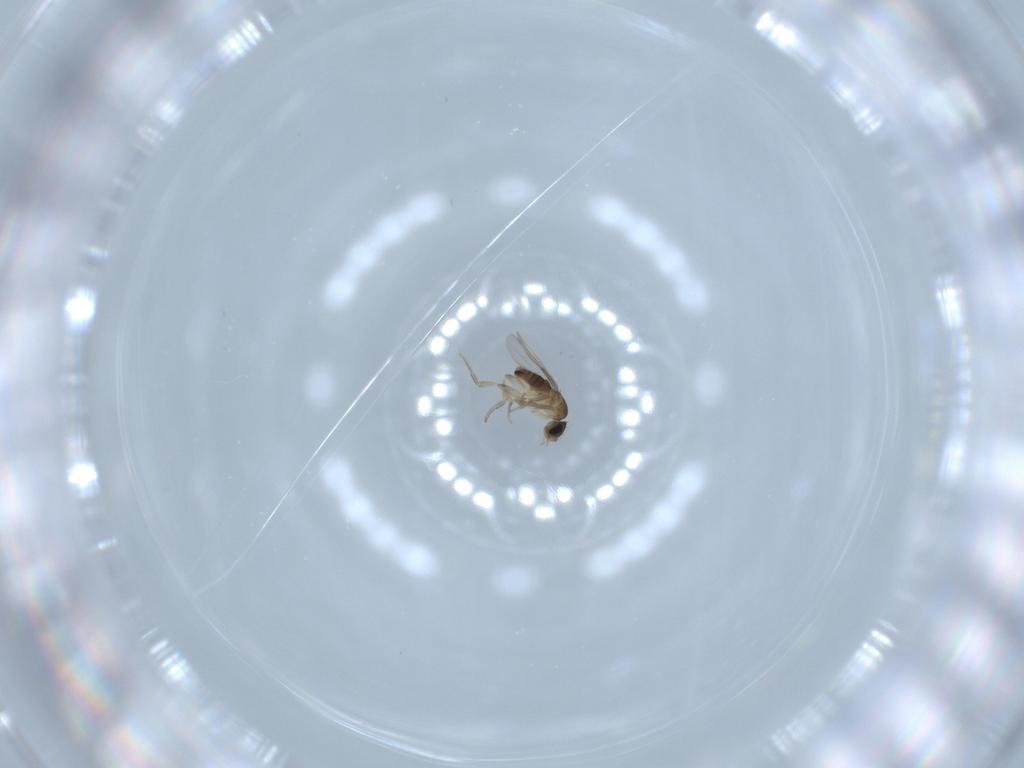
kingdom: Animalia
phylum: Arthropoda
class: Insecta
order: Diptera
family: Phoridae
